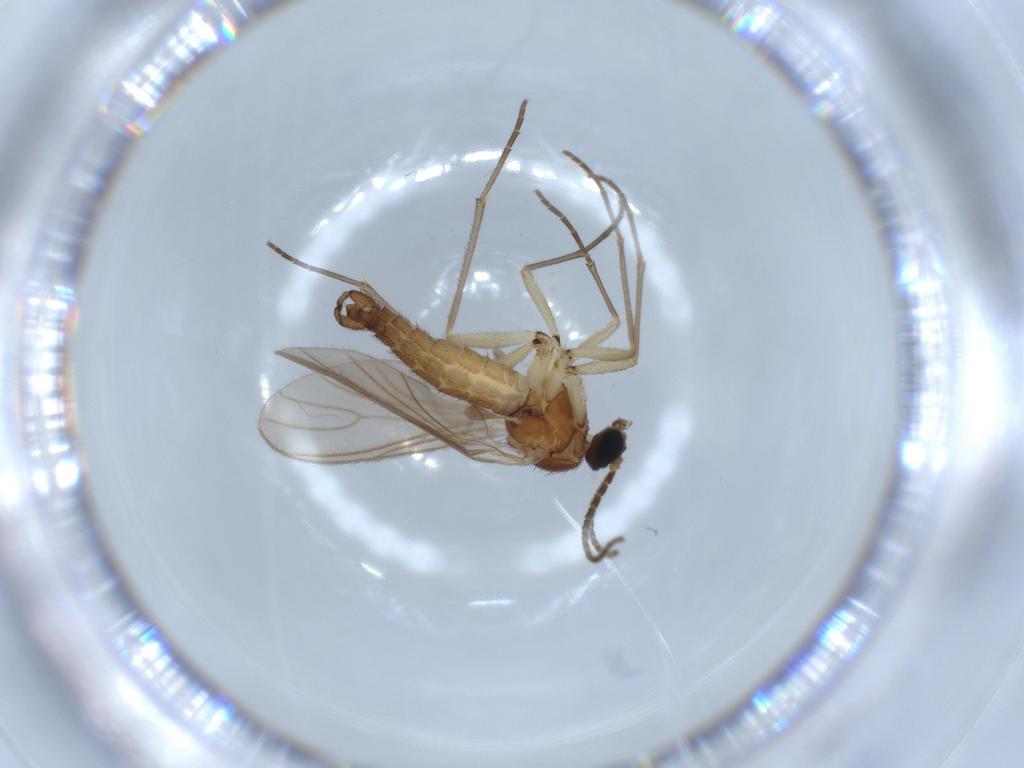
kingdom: Animalia
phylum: Arthropoda
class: Insecta
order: Diptera
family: Sciaridae
